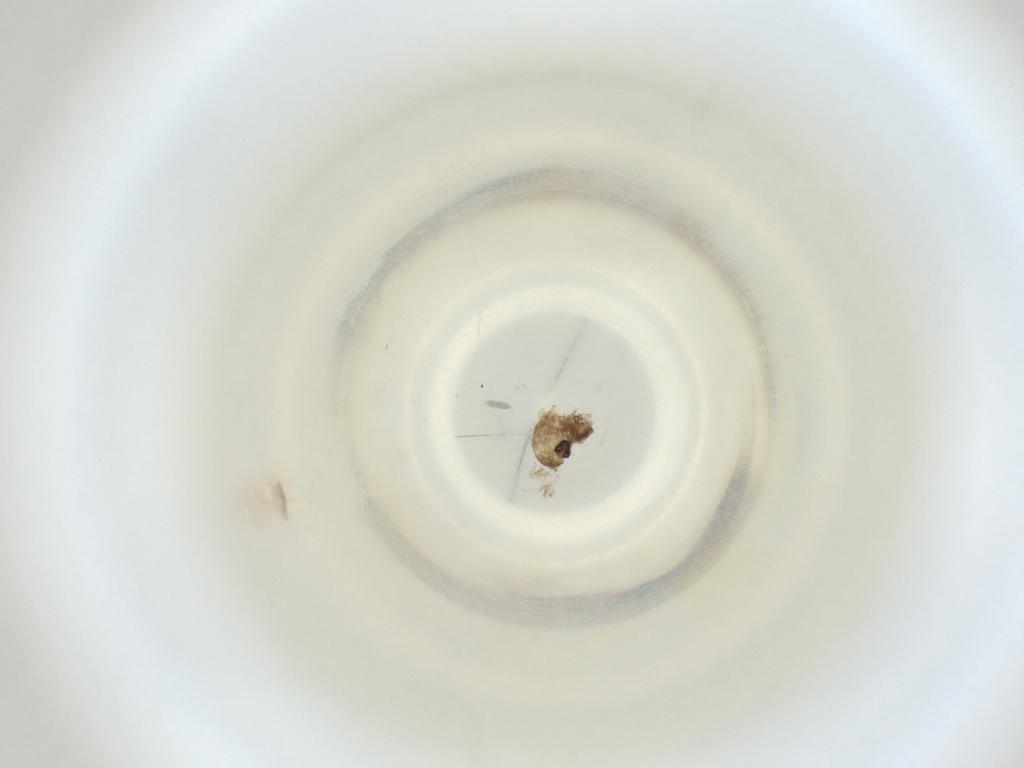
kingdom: Animalia
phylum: Arthropoda
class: Insecta
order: Diptera
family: Cecidomyiidae
